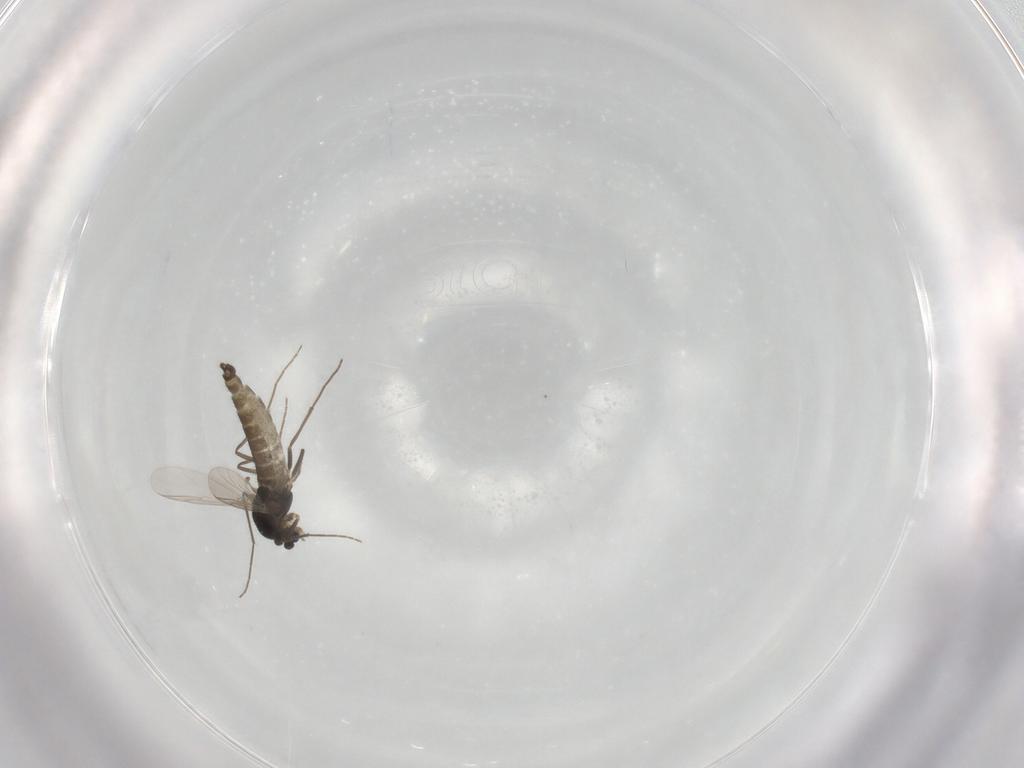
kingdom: Animalia
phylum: Arthropoda
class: Insecta
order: Diptera
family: Chironomidae
